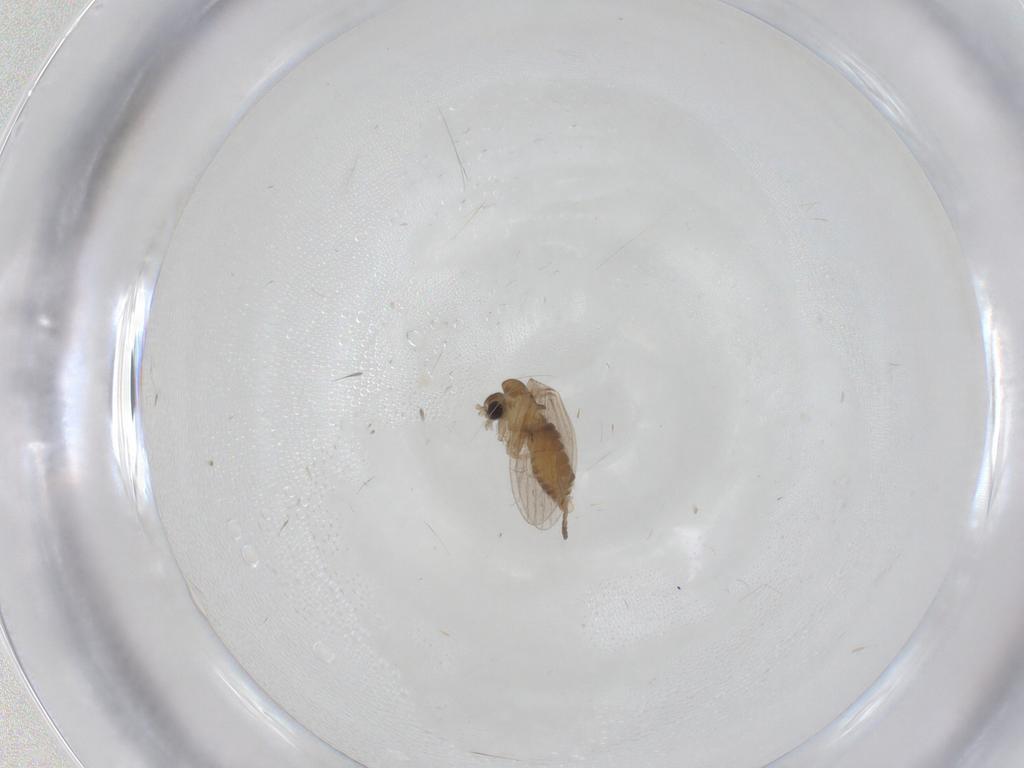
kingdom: Animalia
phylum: Arthropoda
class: Insecta
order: Diptera
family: Psychodidae
